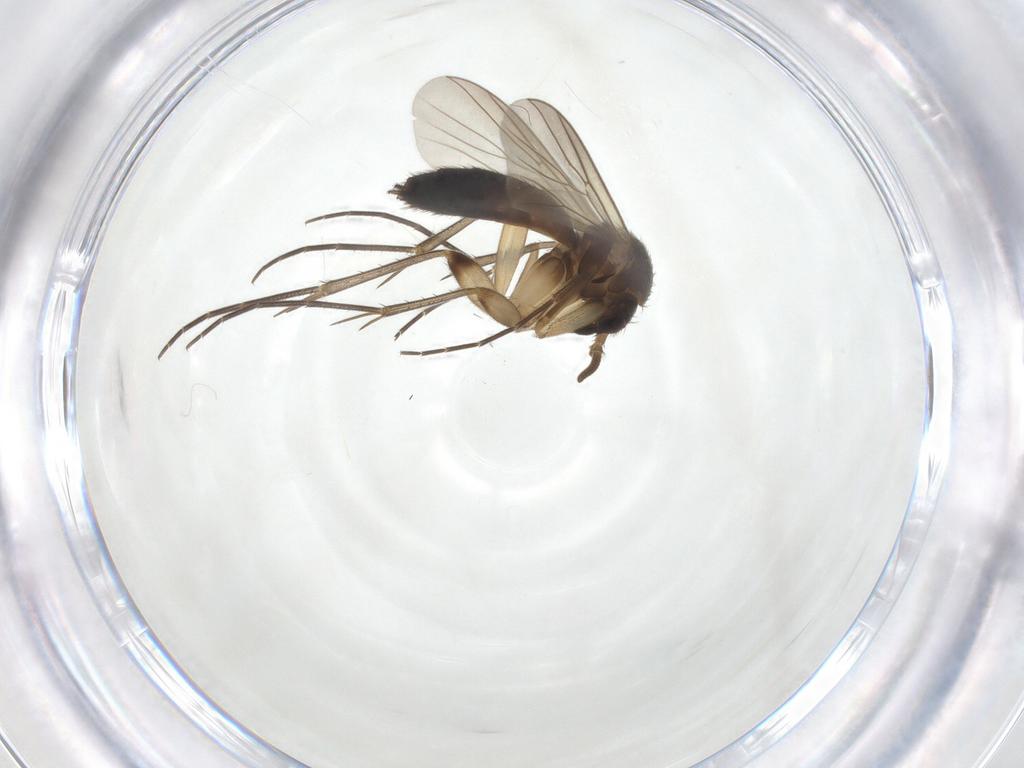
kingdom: Animalia
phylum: Arthropoda
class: Insecta
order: Diptera
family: Mycetophilidae
